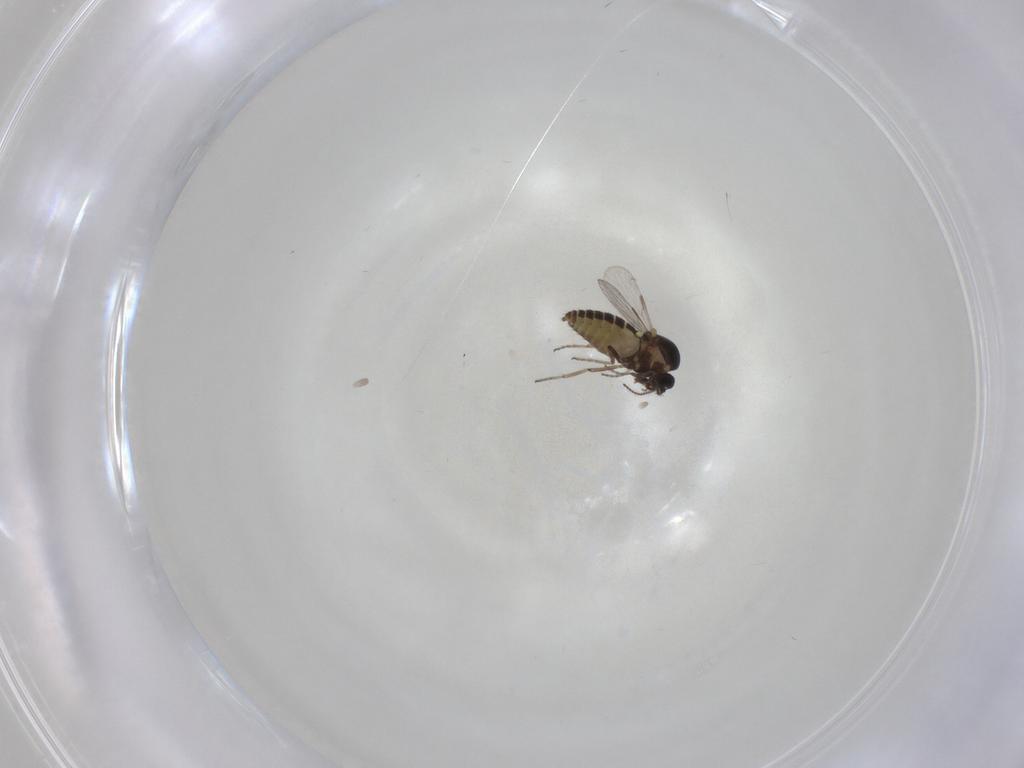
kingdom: Animalia
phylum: Arthropoda
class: Insecta
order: Diptera
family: Ceratopogonidae
